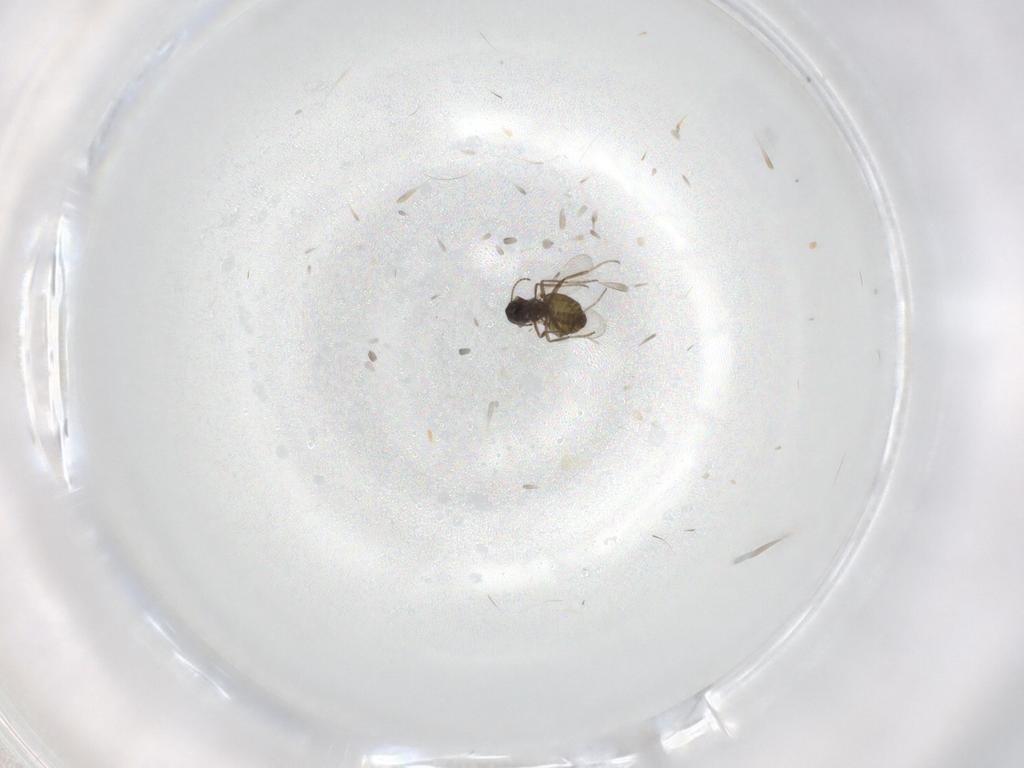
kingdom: Animalia
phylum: Arthropoda
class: Insecta
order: Diptera
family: Ceratopogonidae
